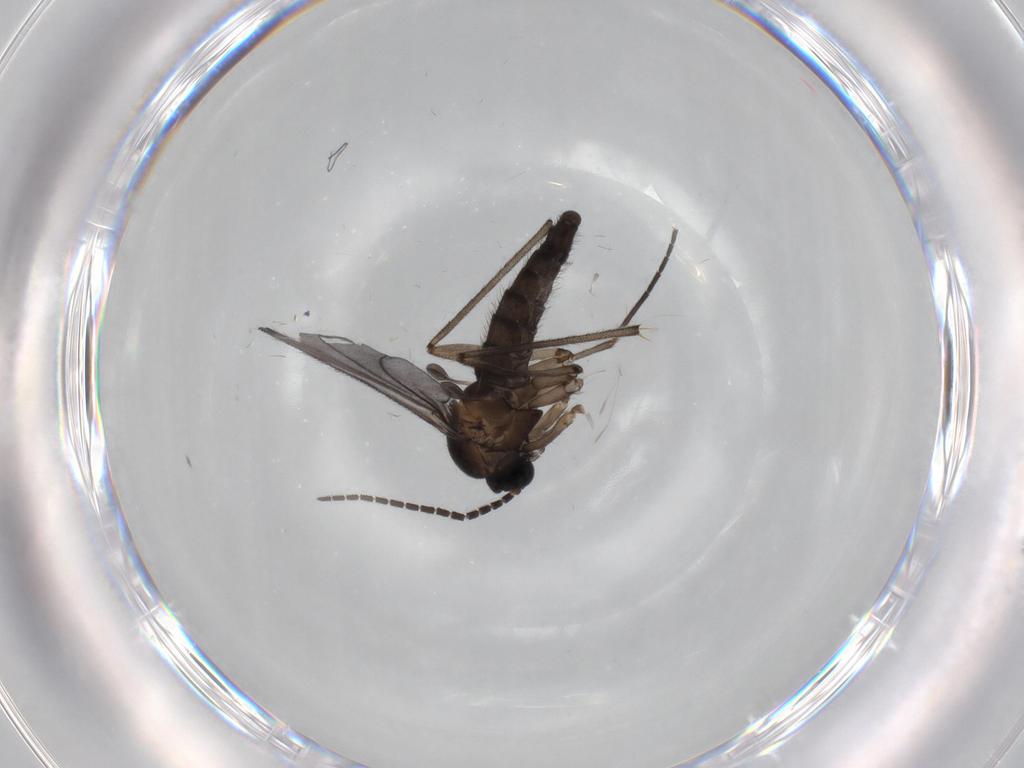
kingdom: Animalia
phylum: Arthropoda
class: Insecta
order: Diptera
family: Sciaridae
